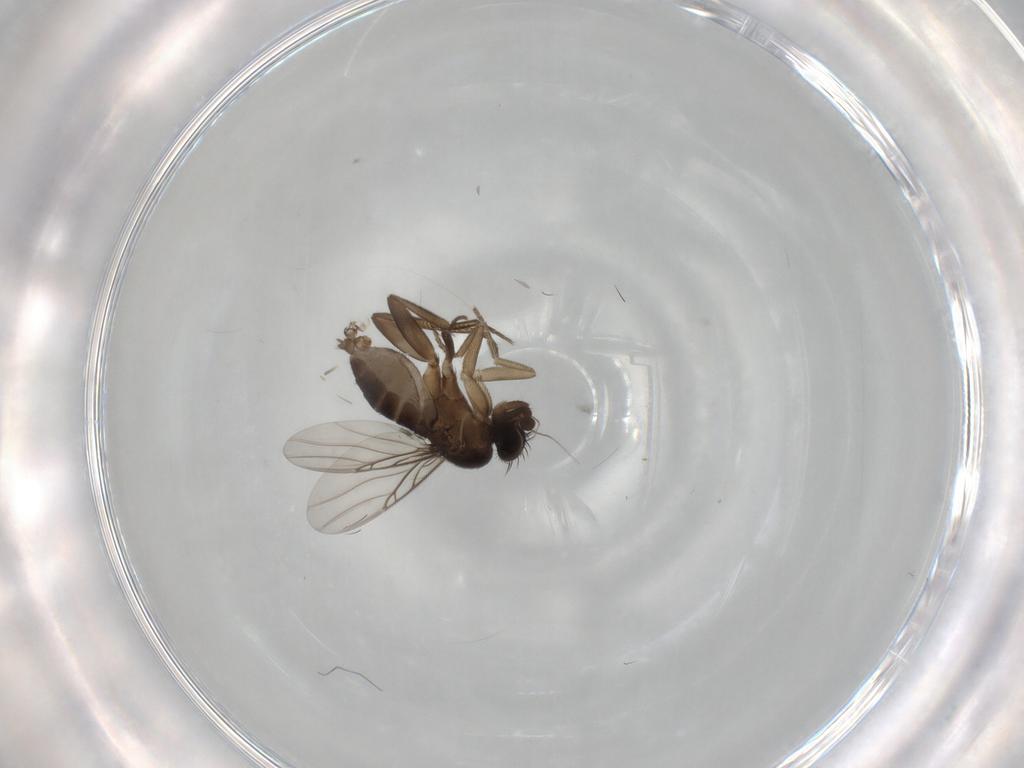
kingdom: Animalia
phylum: Arthropoda
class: Insecta
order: Diptera
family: Phoridae
